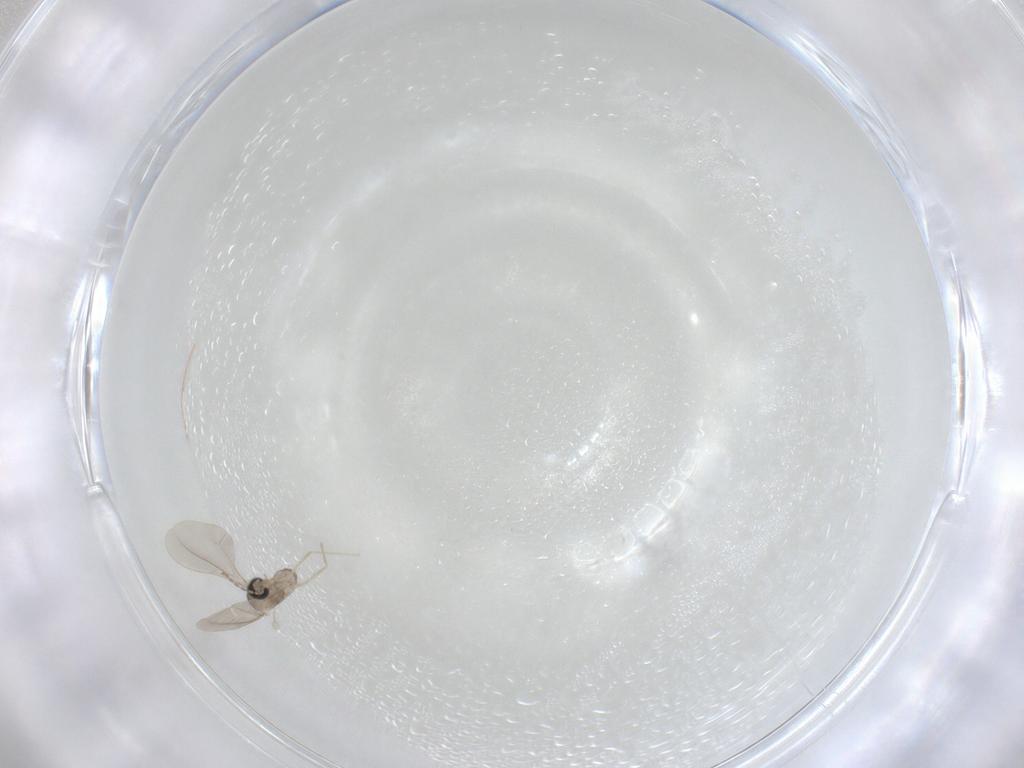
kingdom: Animalia
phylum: Arthropoda
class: Insecta
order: Diptera
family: Cecidomyiidae
